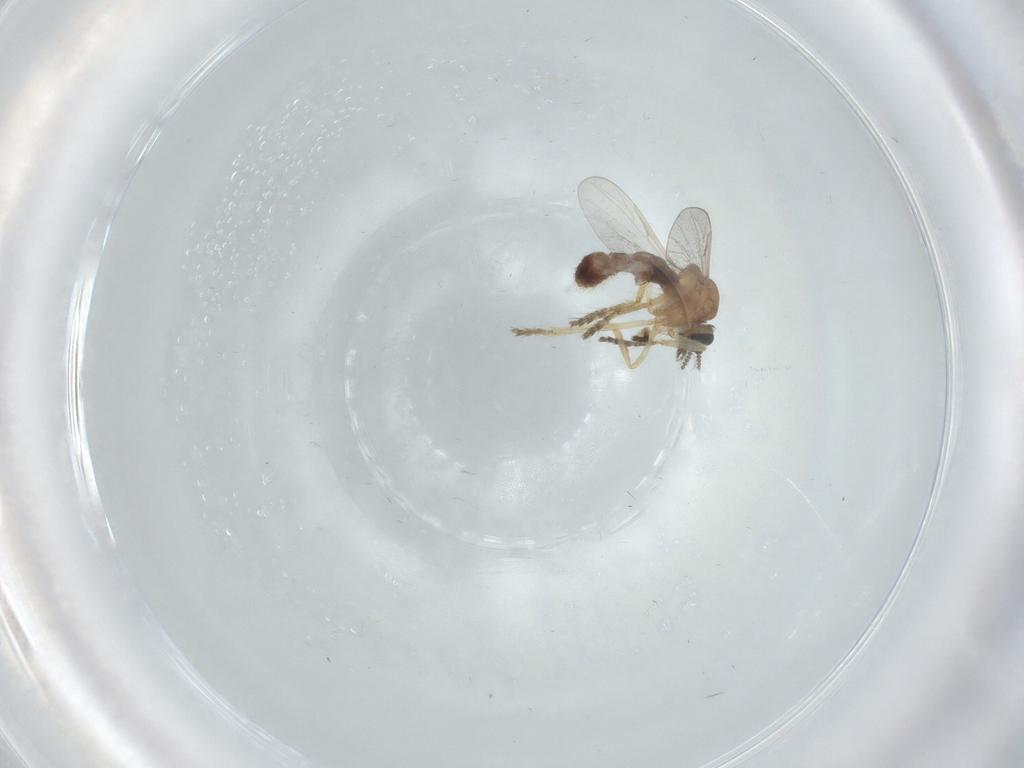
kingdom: Animalia
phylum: Arthropoda
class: Insecta
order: Diptera
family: Ceratopogonidae
